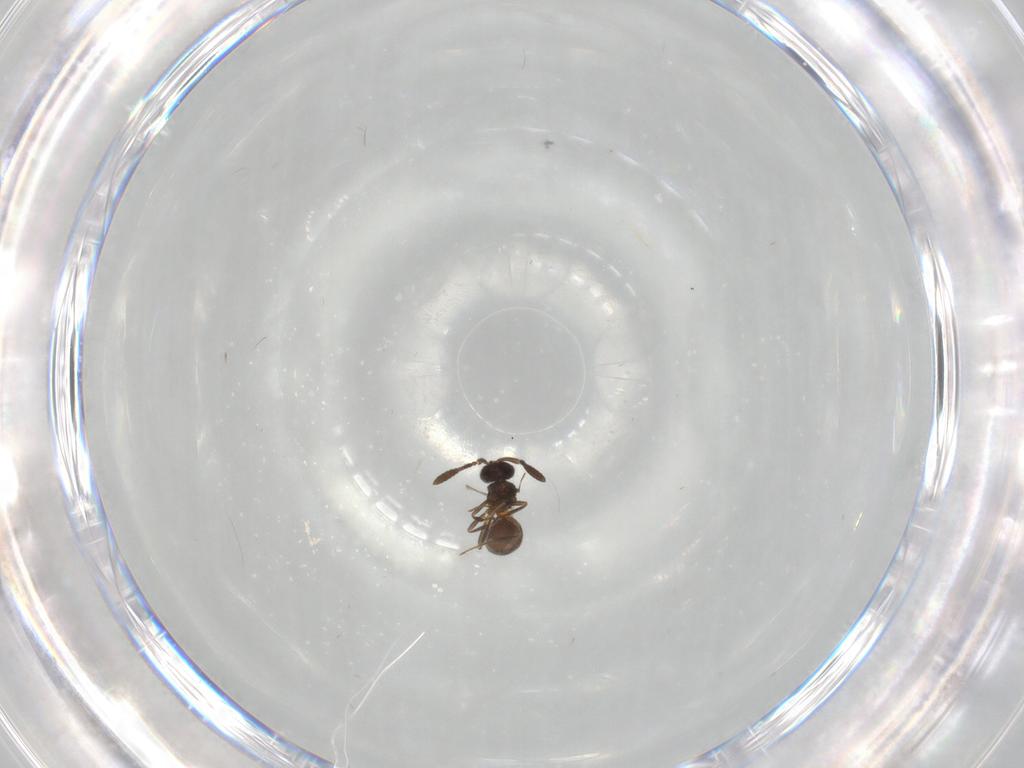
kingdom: Animalia
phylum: Arthropoda
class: Insecta
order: Hymenoptera
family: Scelionidae
